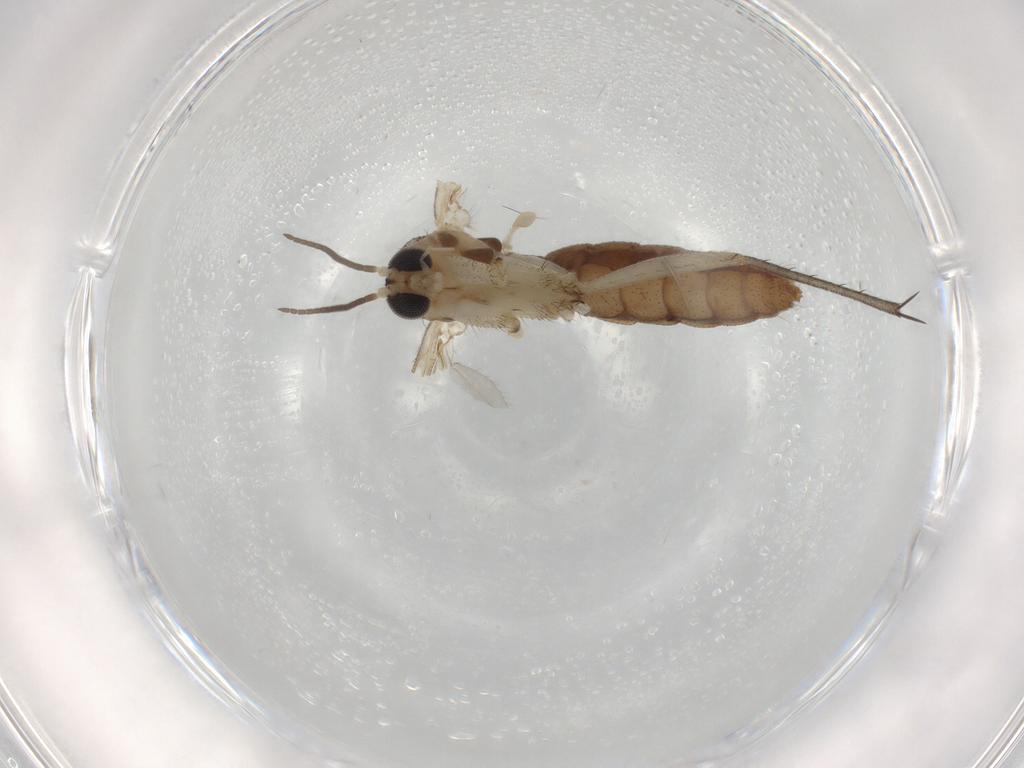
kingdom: Animalia
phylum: Arthropoda
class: Insecta
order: Diptera
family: Mycetophilidae
